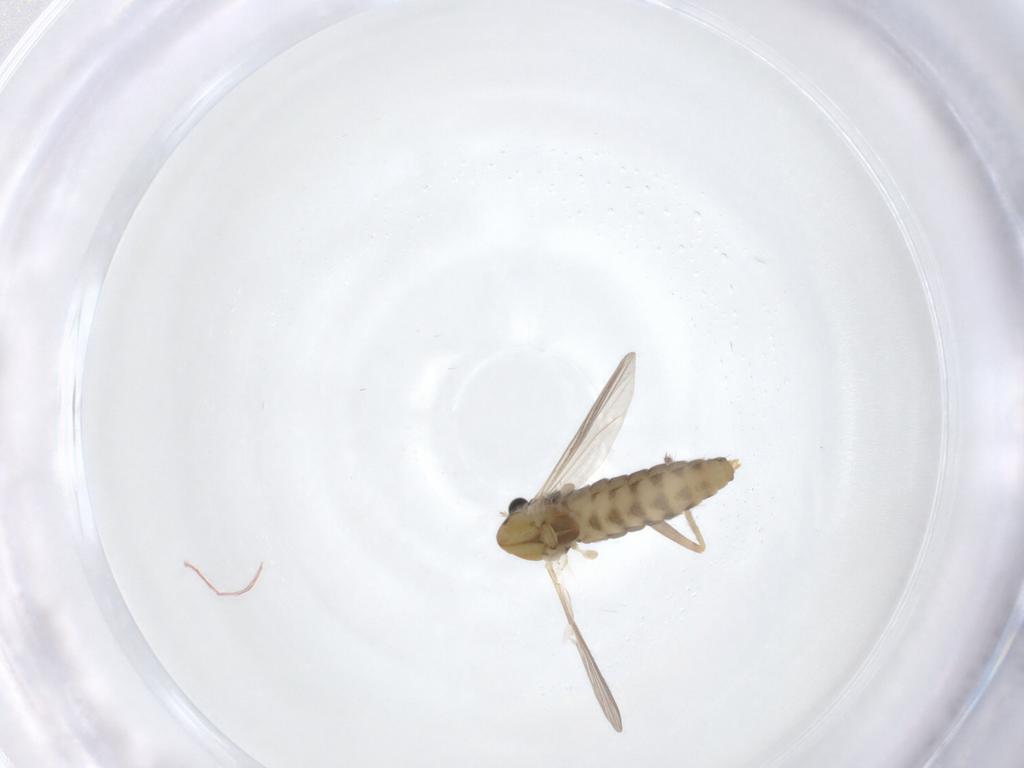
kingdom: Animalia
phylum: Arthropoda
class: Insecta
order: Diptera
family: Chironomidae
